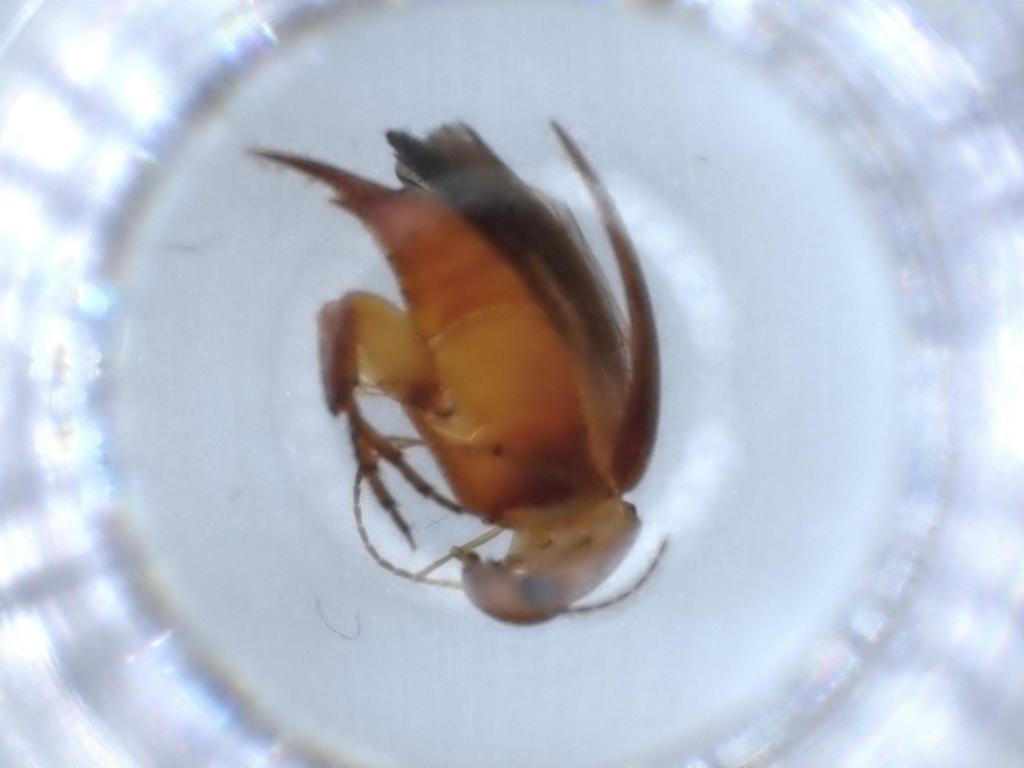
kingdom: Animalia
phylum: Arthropoda
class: Insecta
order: Coleoptera
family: Mordellidae
